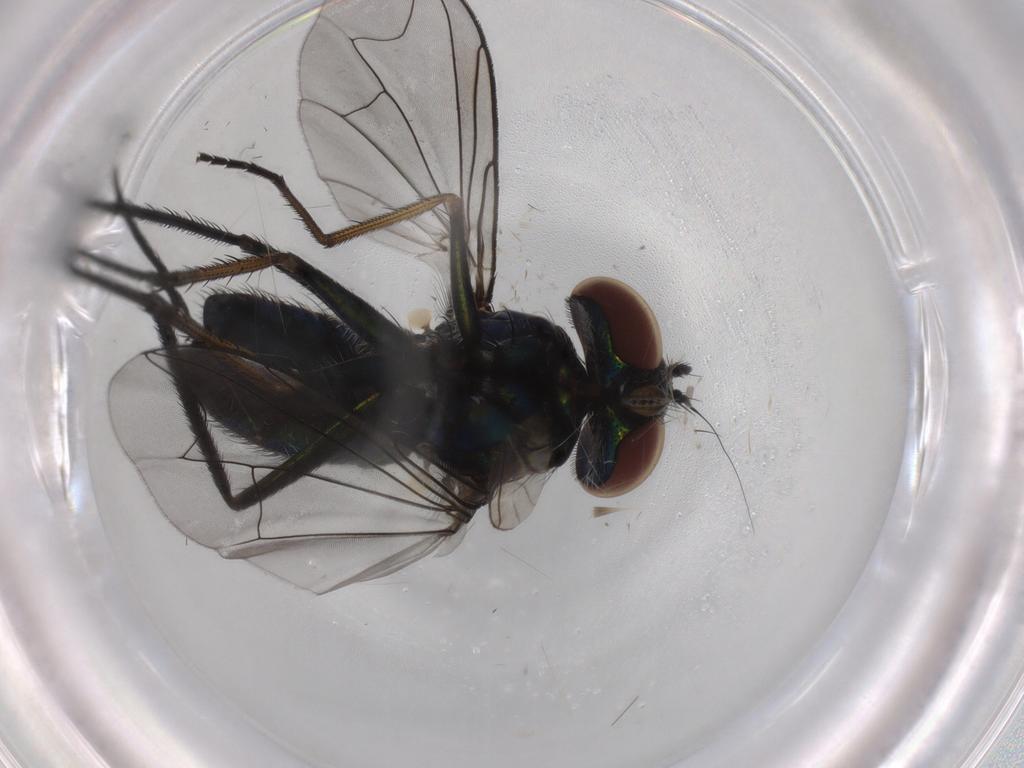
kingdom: Animalia
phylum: Arthropoda
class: Insecta
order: Diptera
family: Dolichopodidae
